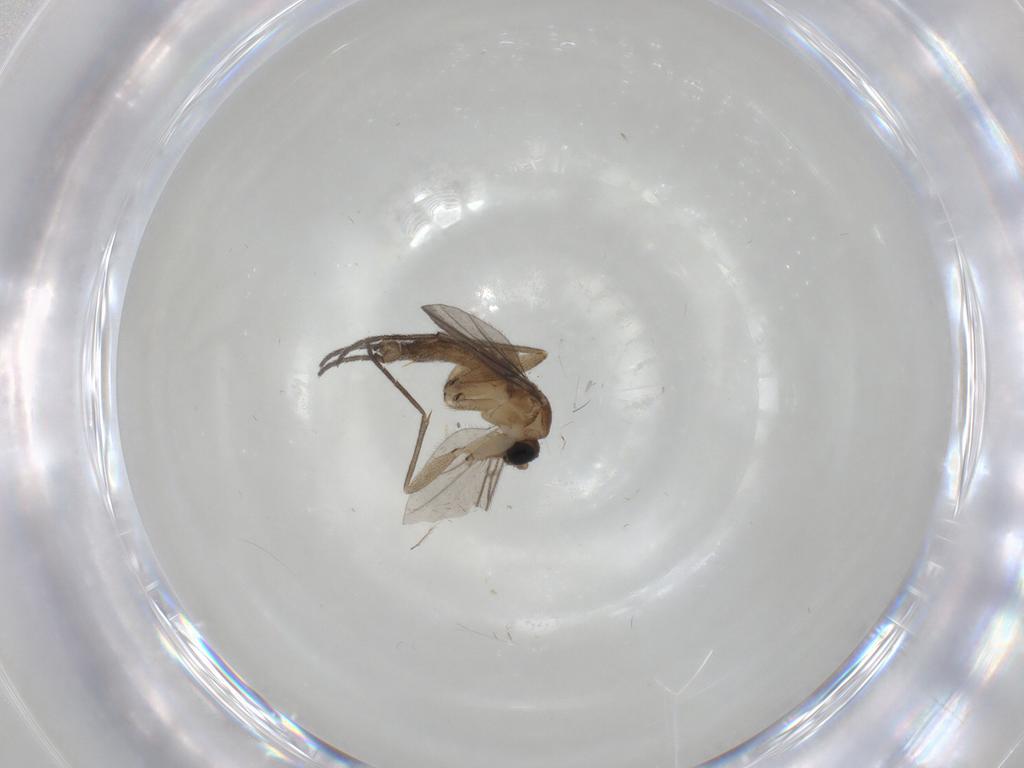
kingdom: Animalia
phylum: Arthropoda
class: Insecta
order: Diptera
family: Sciaridae
